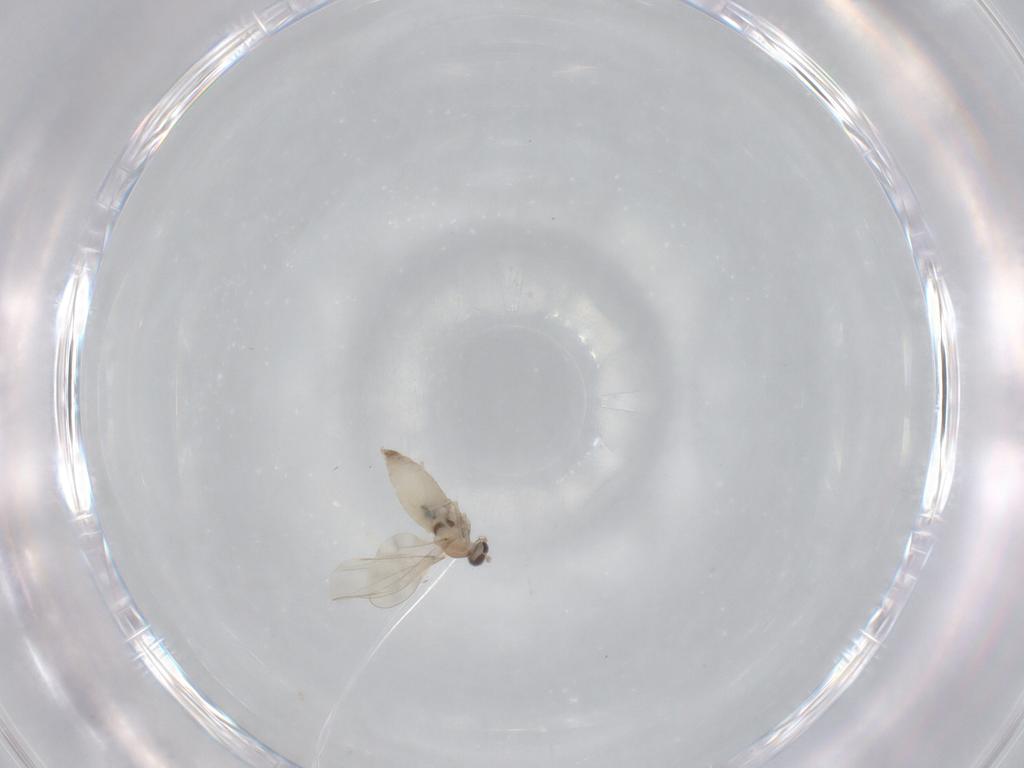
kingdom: Animalia
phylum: Arthropoda
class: Insecta
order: Diptera
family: Cecidomyiidae
